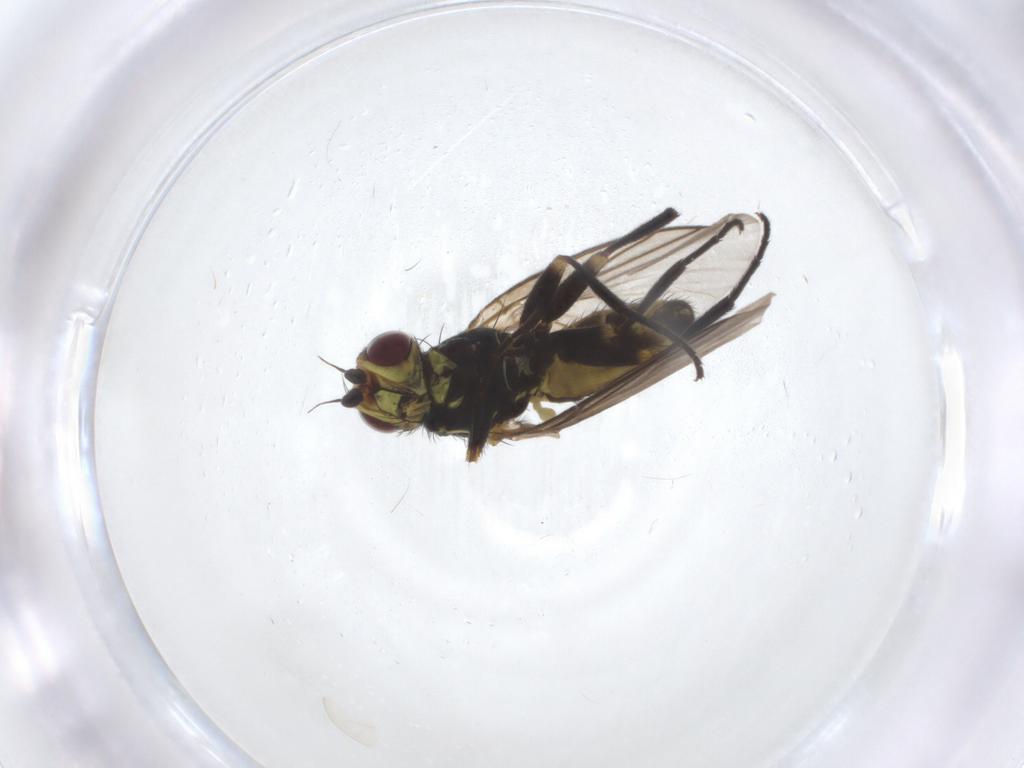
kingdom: Animalia
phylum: Arthropoda
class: Insecta
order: Diptera
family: Agromyzidae
